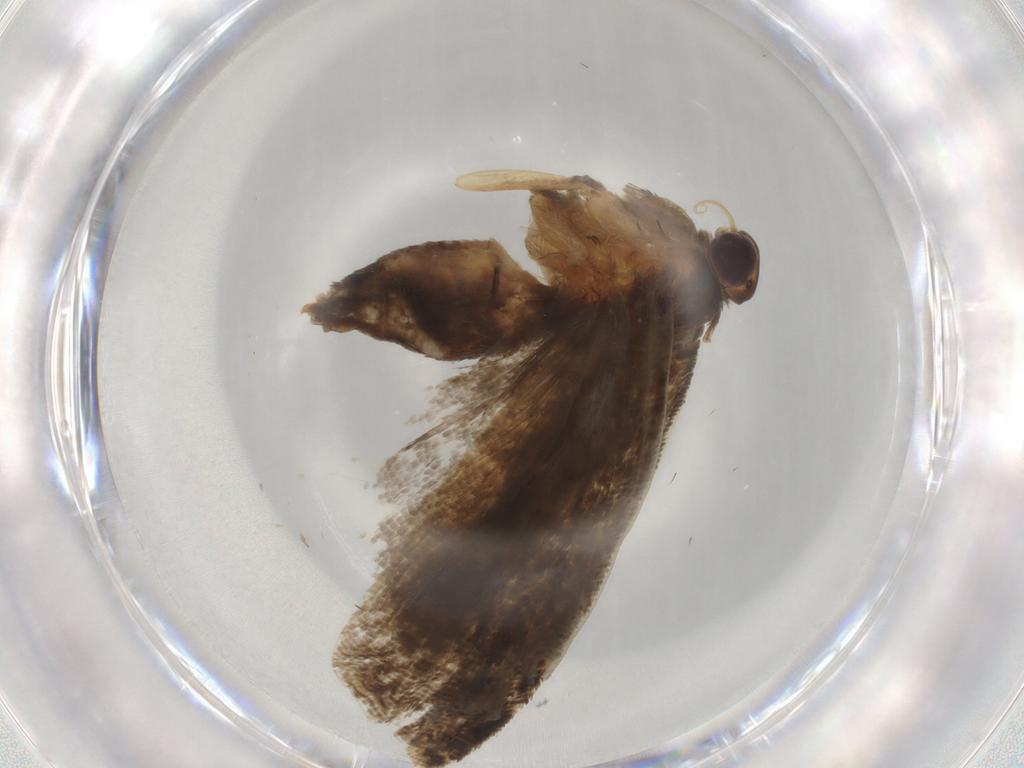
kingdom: Animalia
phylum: Arthropoda
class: Insecta
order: Lepidoptera
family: Tortricidae
